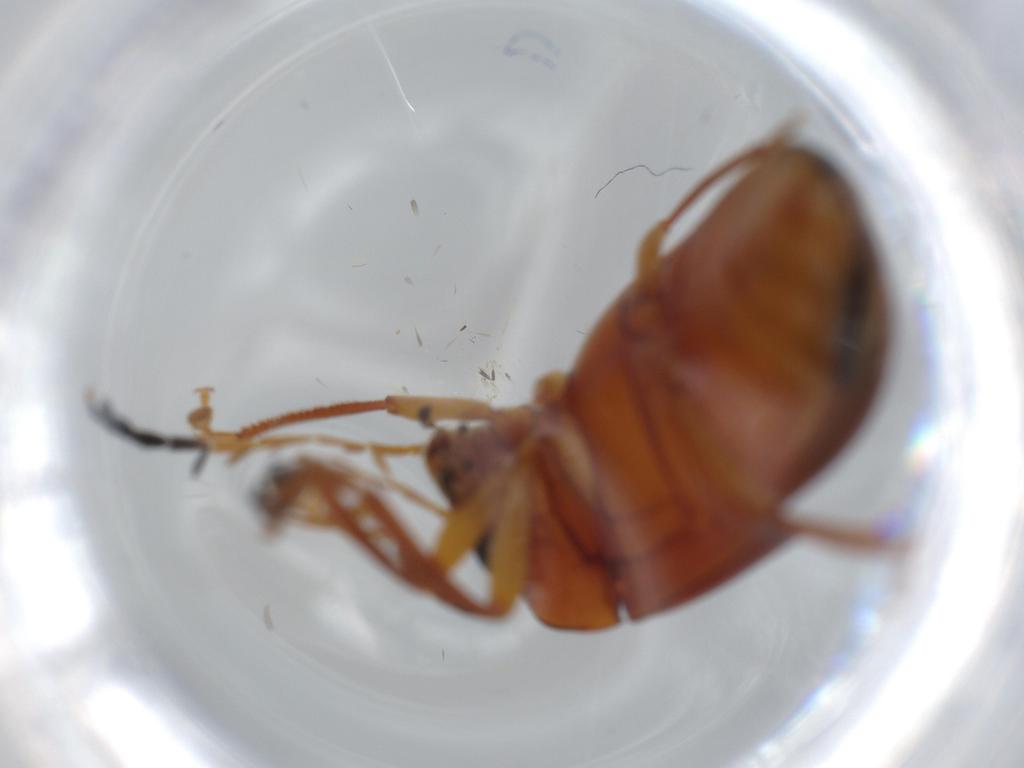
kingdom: Animalia
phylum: Arthropoda
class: Insecta
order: Coleoptera
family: Ptilodactylidae
